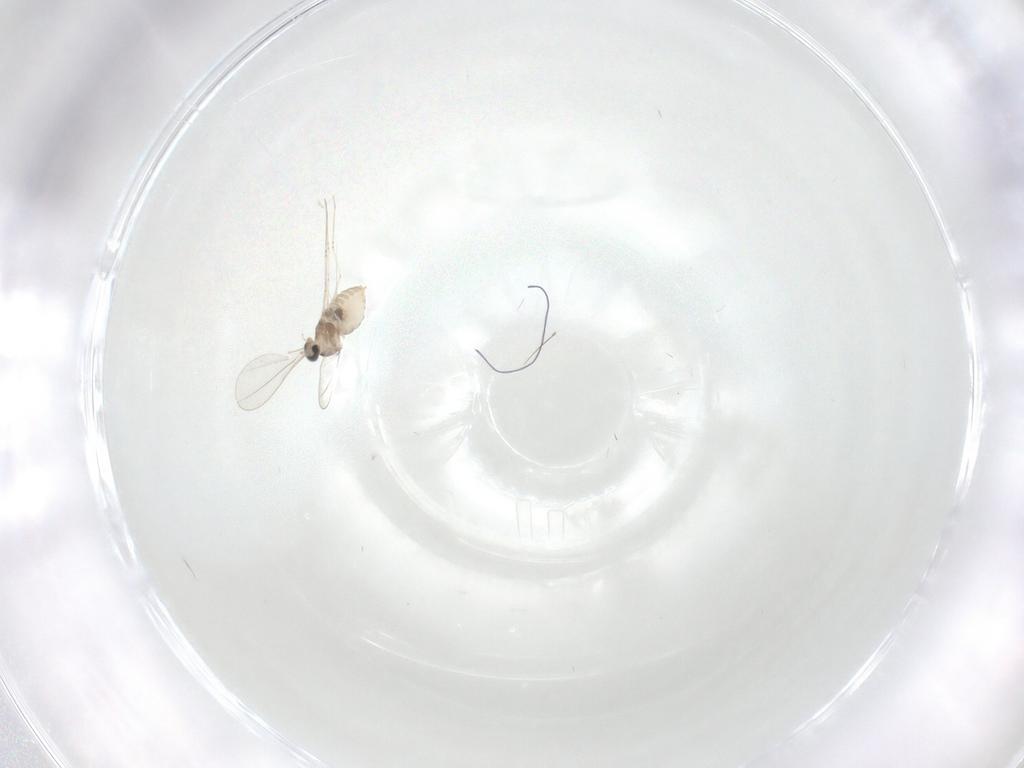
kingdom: Animalia
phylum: Arthropoda
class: Insecta
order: Diptera
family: Cecidomyiidae
